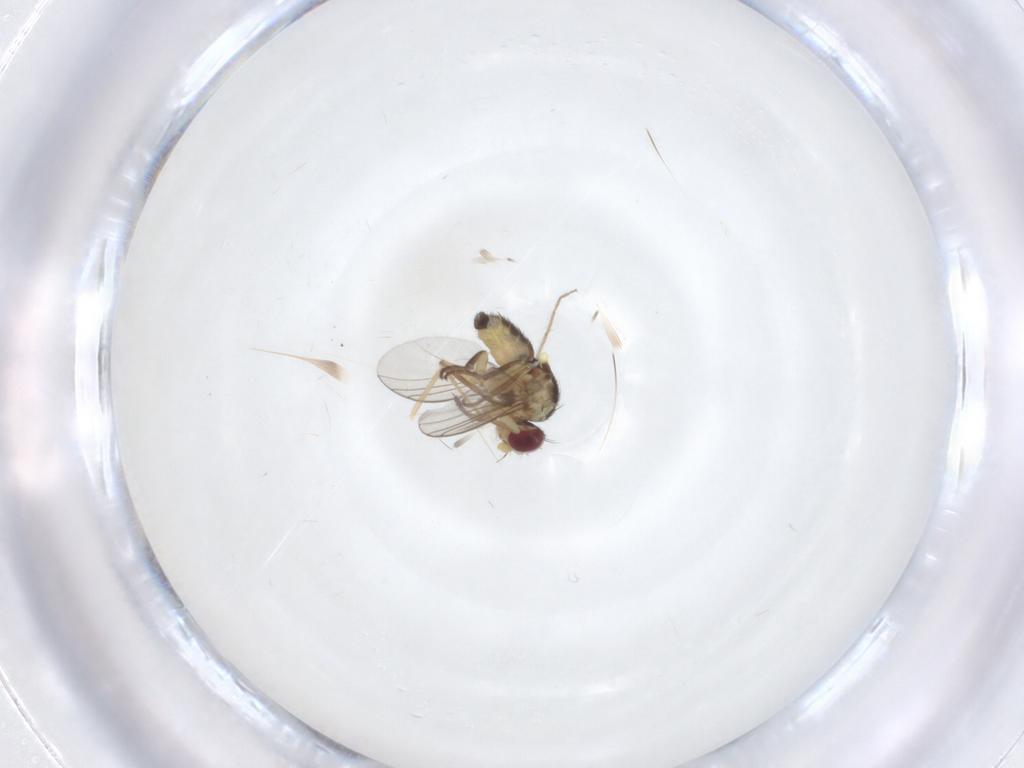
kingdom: Animalia
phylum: Arthropoda
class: Insecta
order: Diptera
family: Agromyzidae
